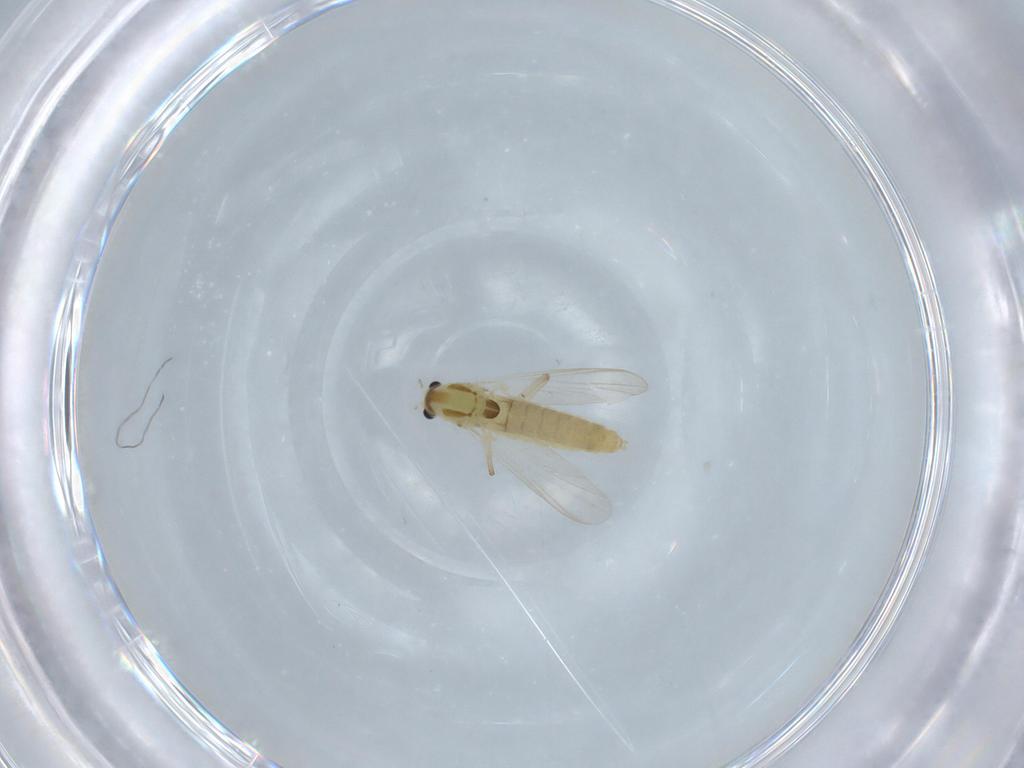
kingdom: Animalia
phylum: Arthropoda
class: Insecta
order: Diptera
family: Chironomidae
